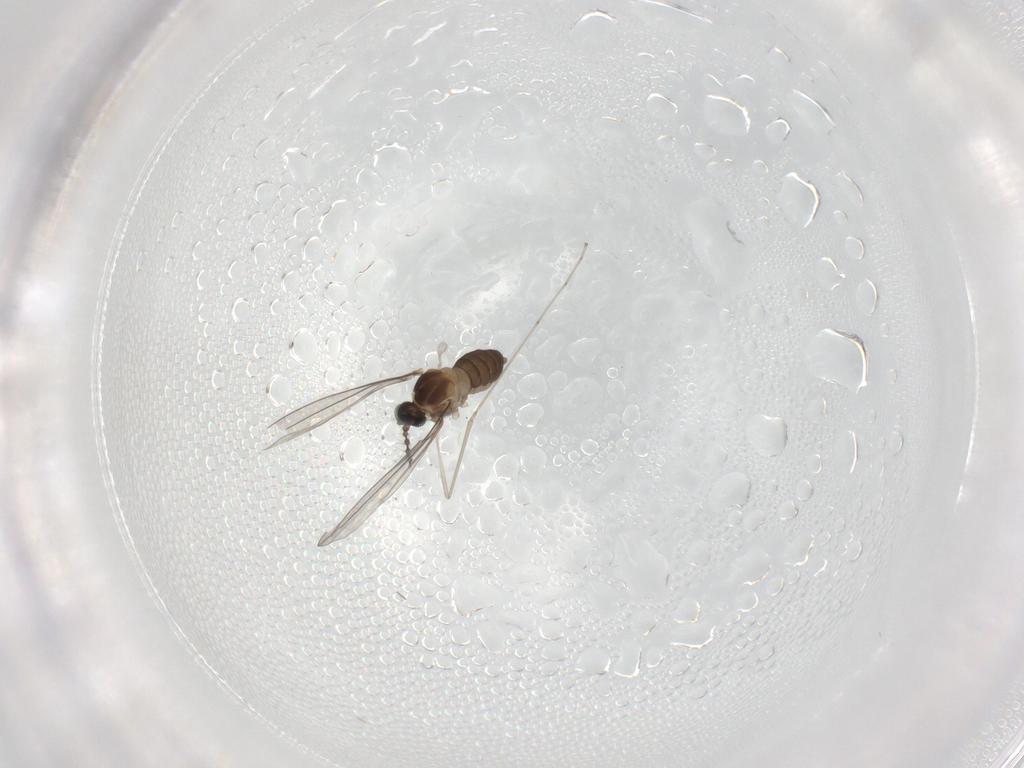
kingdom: Animalia
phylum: Arthropoda
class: Insecta
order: Diptera
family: Cecidomyiidae
